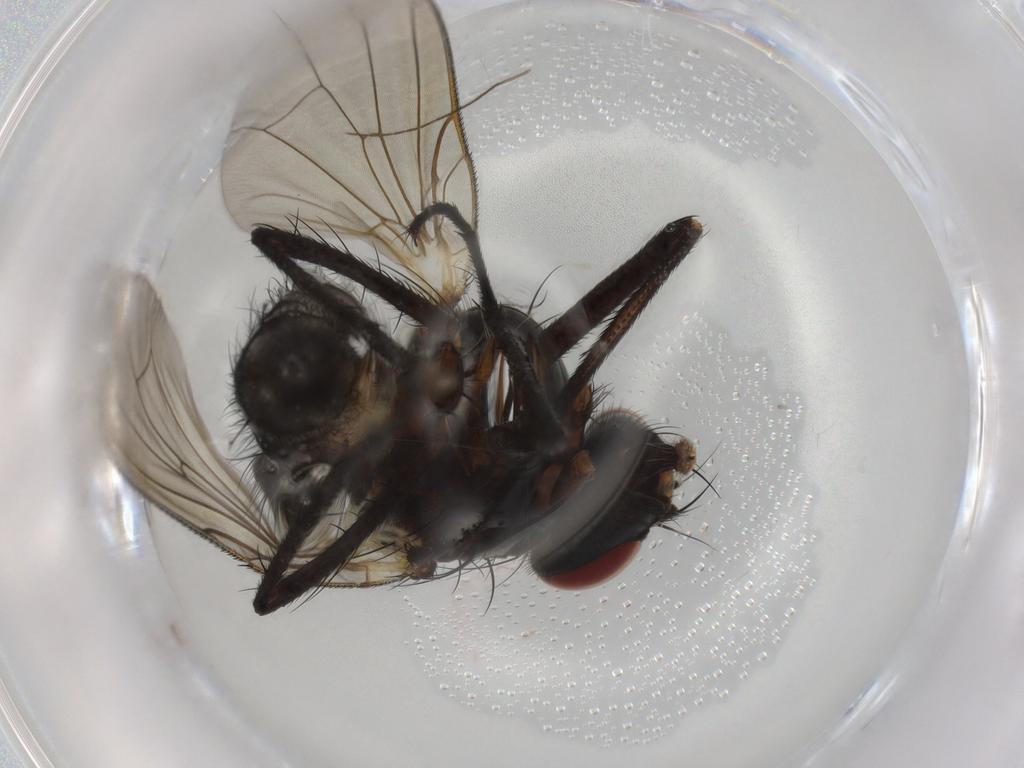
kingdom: Animalia
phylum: Arthropoda
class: Insecta
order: Diptera
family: Anthomyiidae
